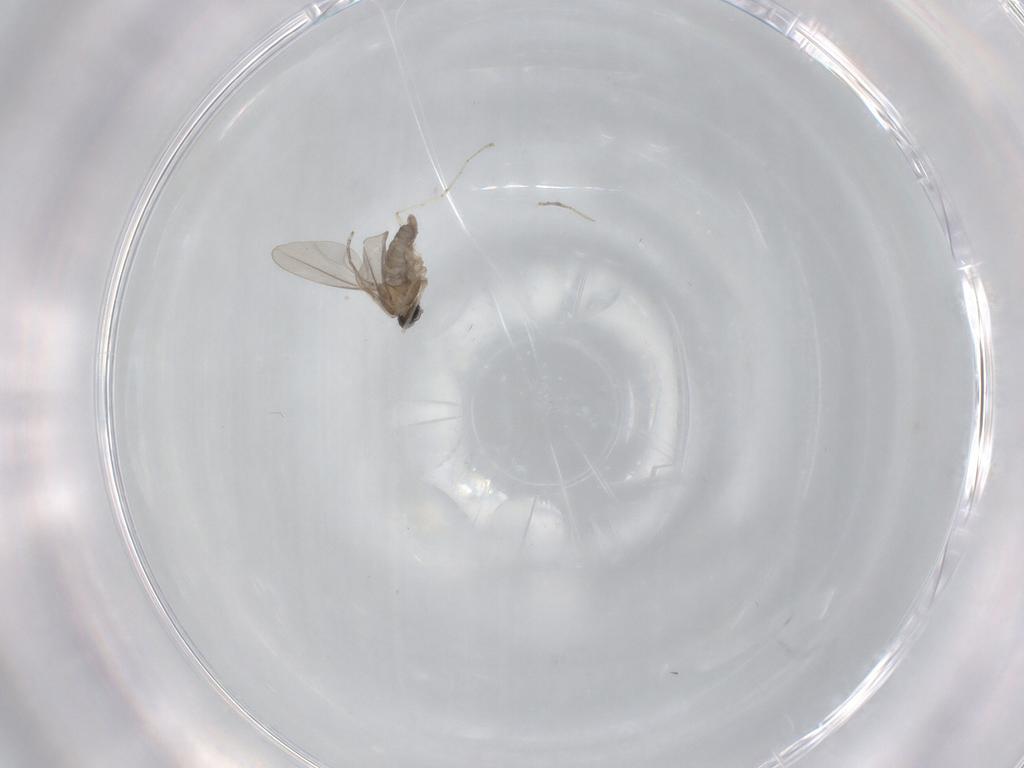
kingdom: Animalia
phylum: Arthropoda
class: Insecta
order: Diptera
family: Cecidomyiidae
